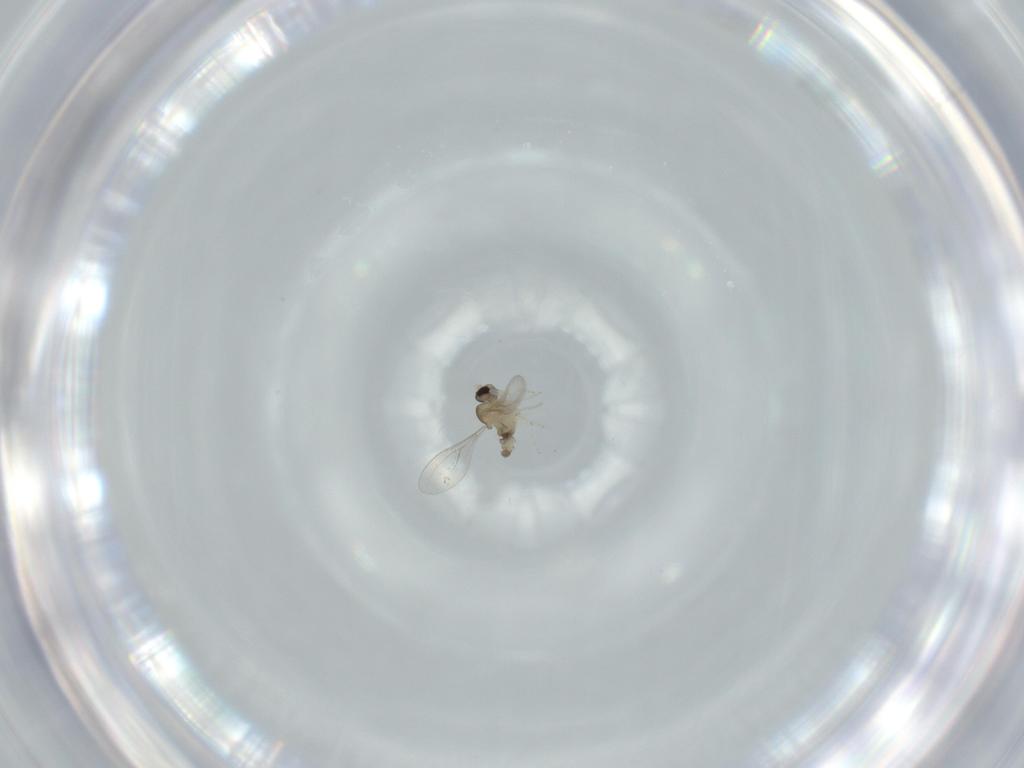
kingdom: Animalia
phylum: Arthropoda
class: Insecta
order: Diptera
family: Cecidomyiidae
